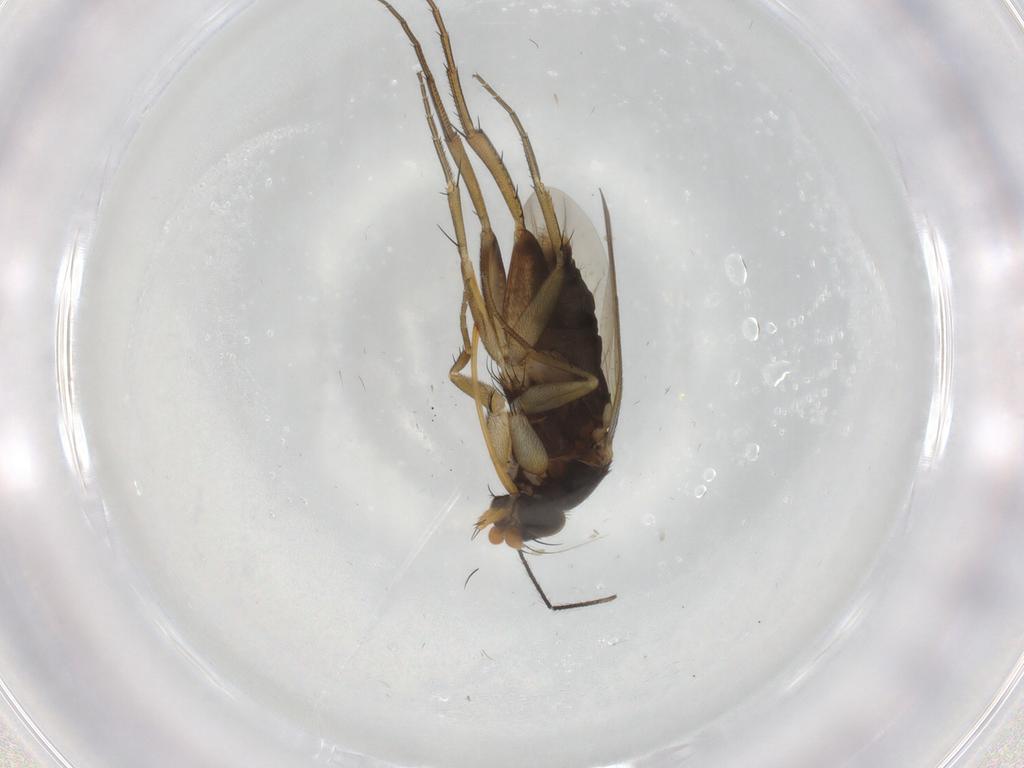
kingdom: Animalia
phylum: Arthropoda
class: Insecta
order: Diptera
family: Phoridae
